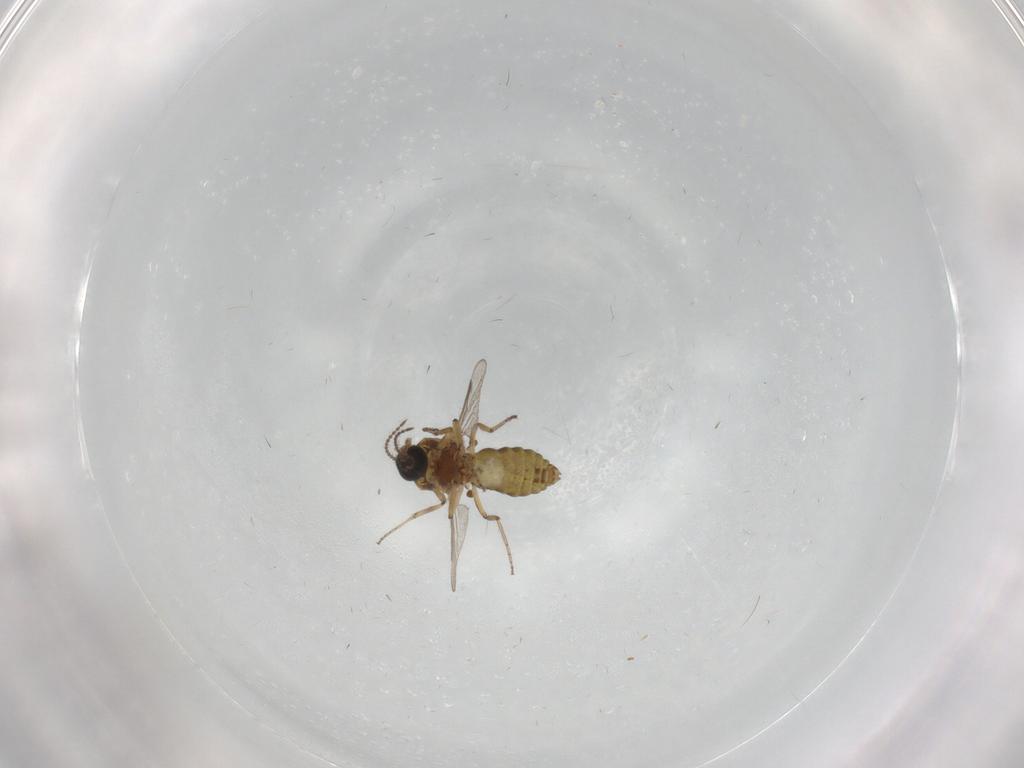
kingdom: Animalia
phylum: Arthropoda
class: Insecta
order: Diptera
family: Ceratopogonidae
